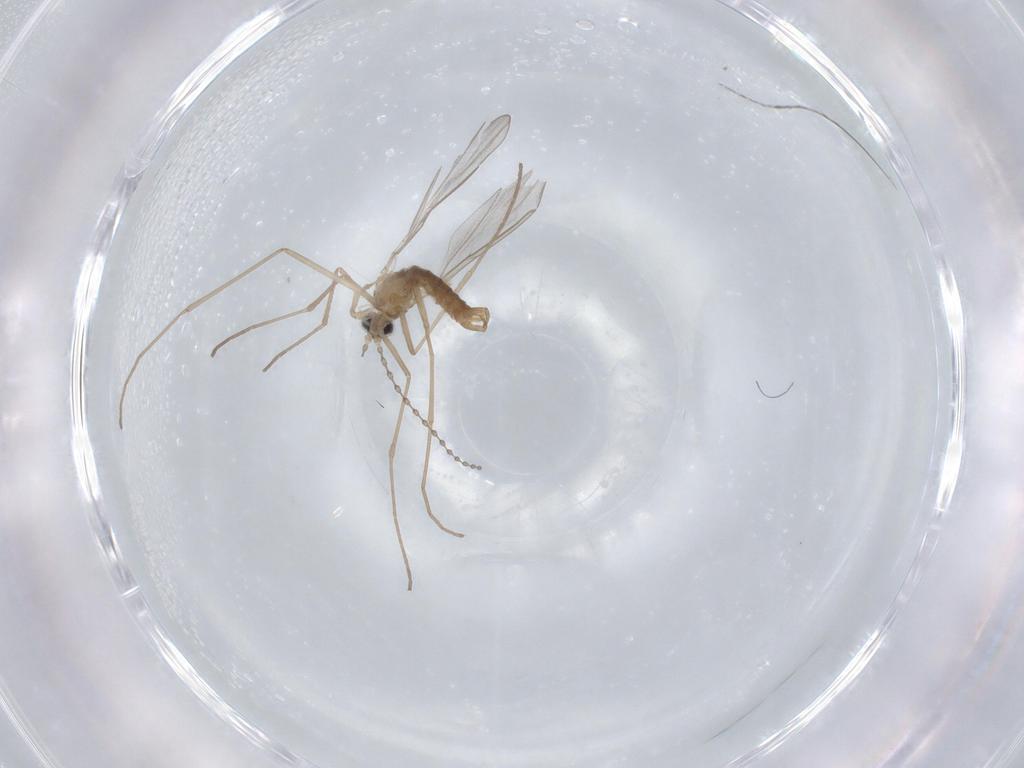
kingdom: Animalia
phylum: Arthropoda
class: Insecta
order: Diptera
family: Cecidomyiidae
